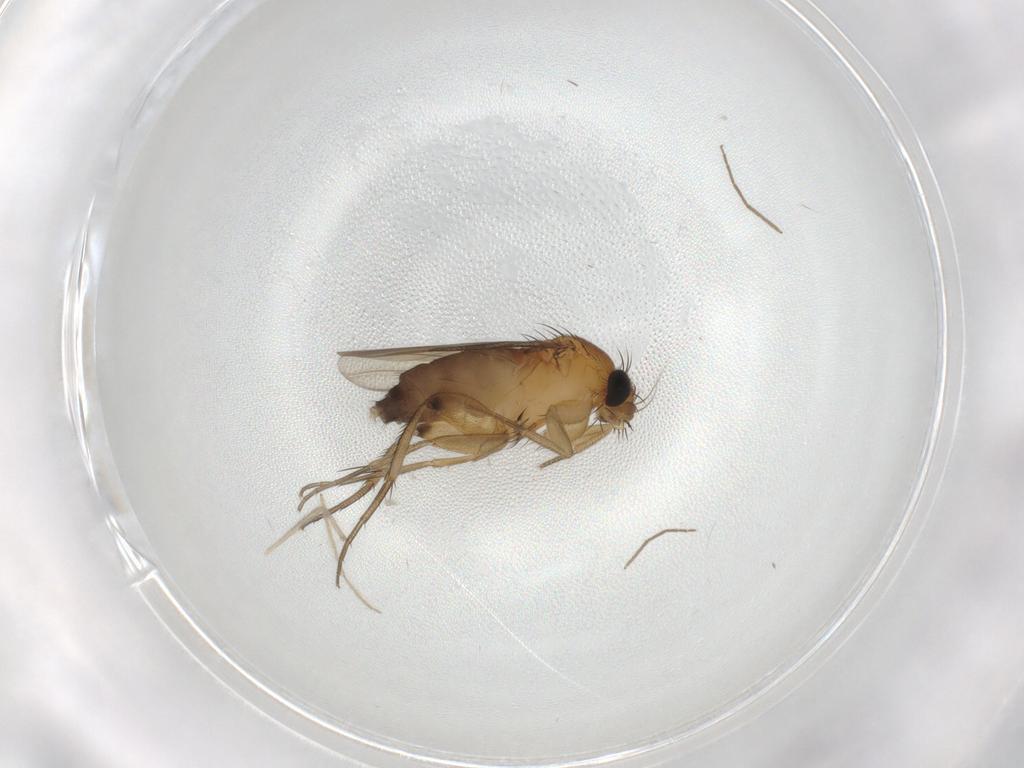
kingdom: Animalia
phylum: Arthropoda
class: Insecta
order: Diptera
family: Phoridae
